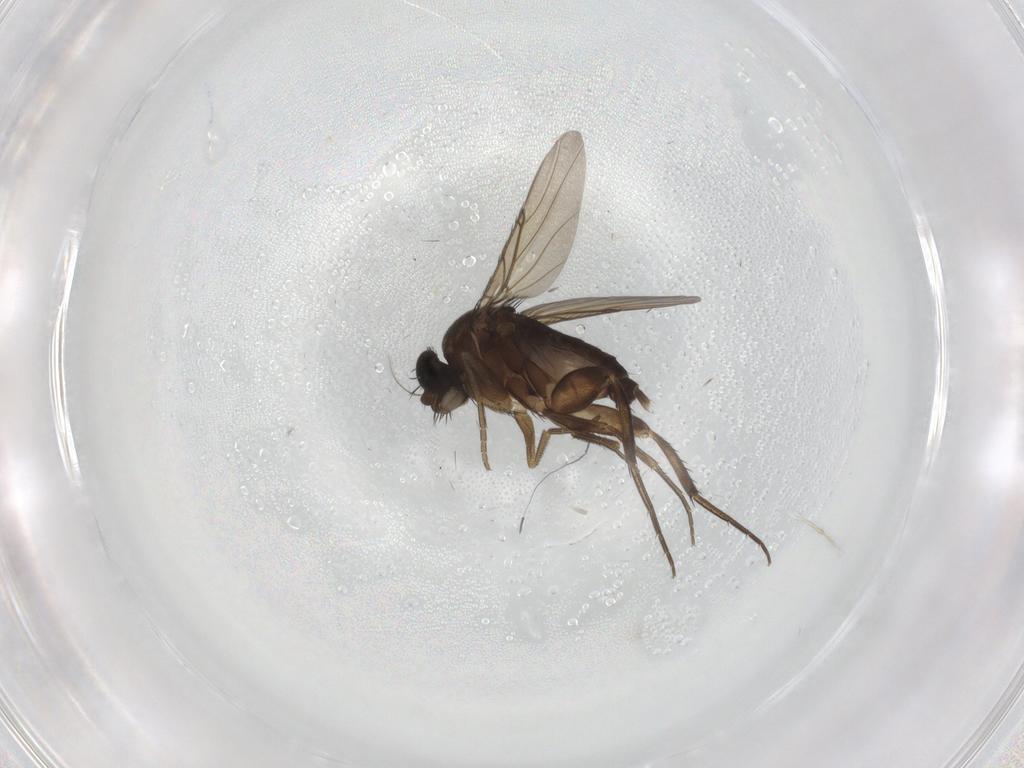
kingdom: Animalia
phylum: Arthropoda
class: Insecta
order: Diptera
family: Phoridae
